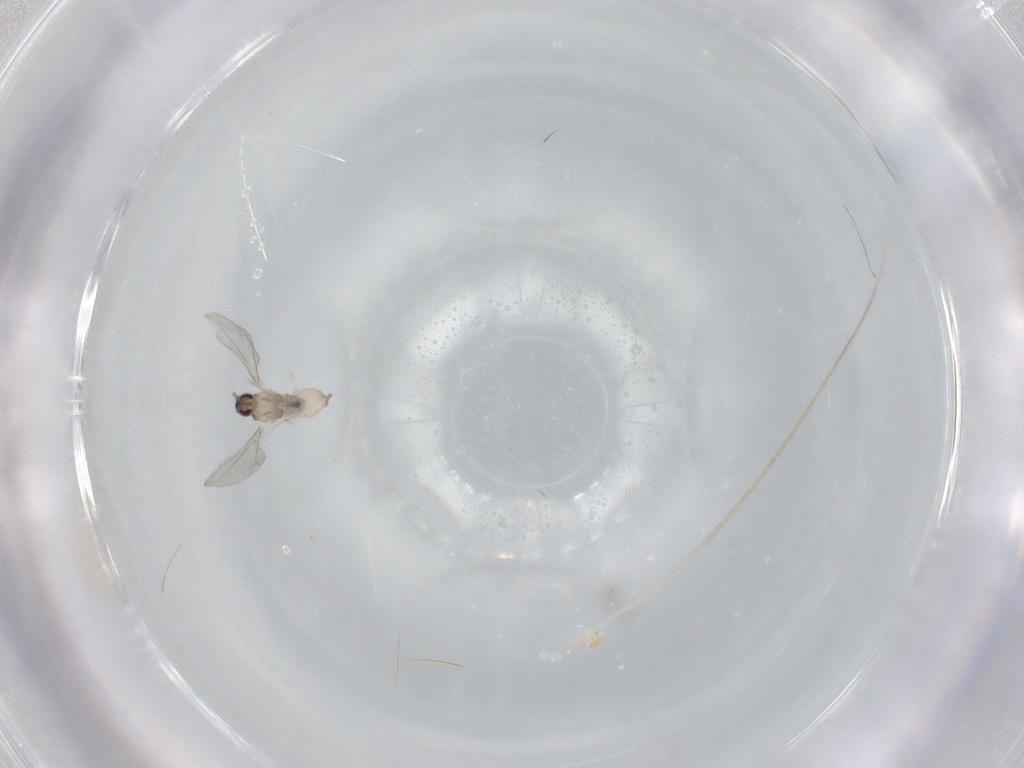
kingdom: Animalia
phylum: Arthropoda
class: Insecta
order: Diptera
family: Cecidomyiidae
